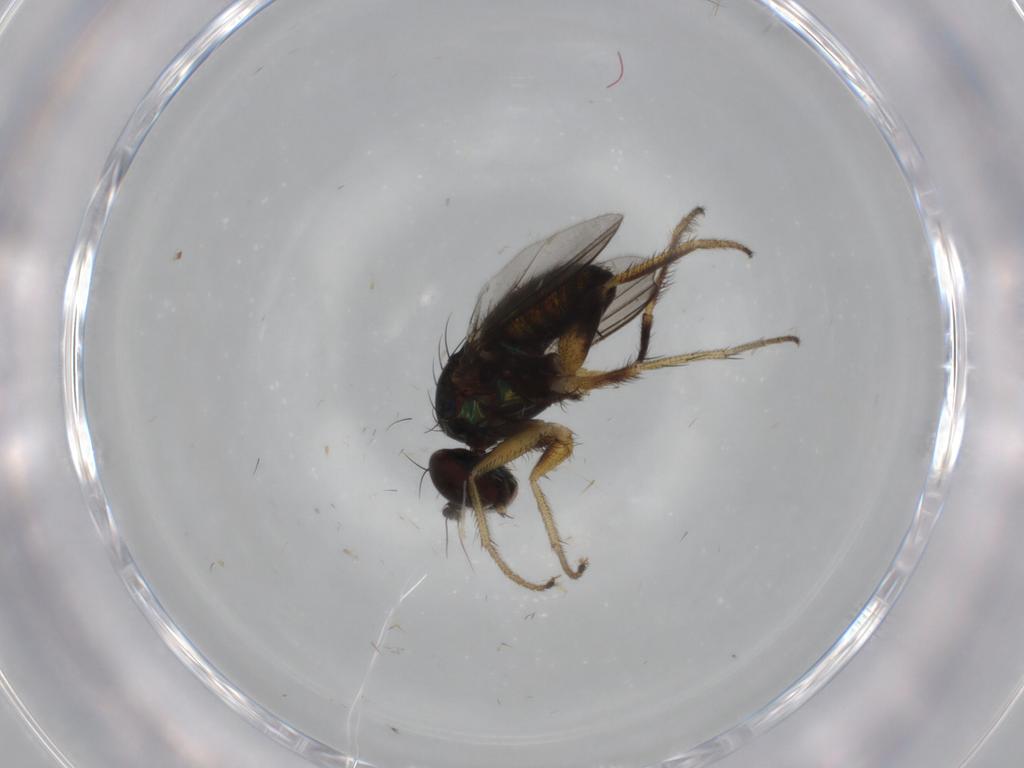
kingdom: Animalia
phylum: Arthropoda
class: Insecta
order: Diptera
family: Dolichopodidae
